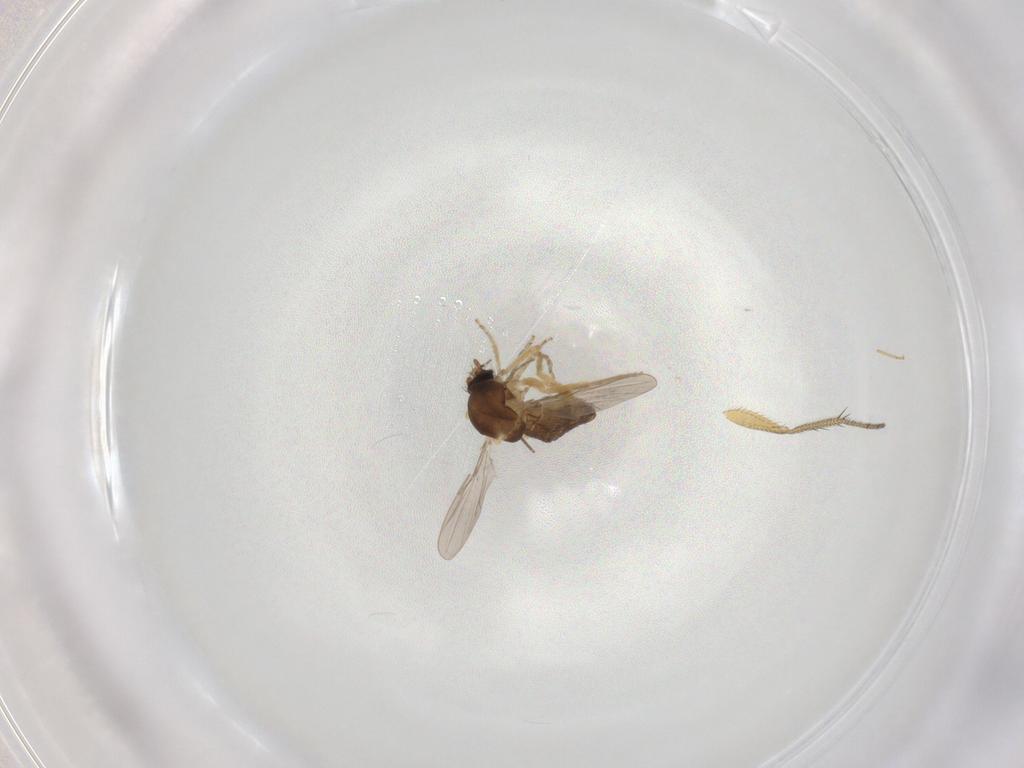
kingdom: Animalia
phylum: Arthropoda
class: Insecta
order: Diptera
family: Ceratopogonidae
